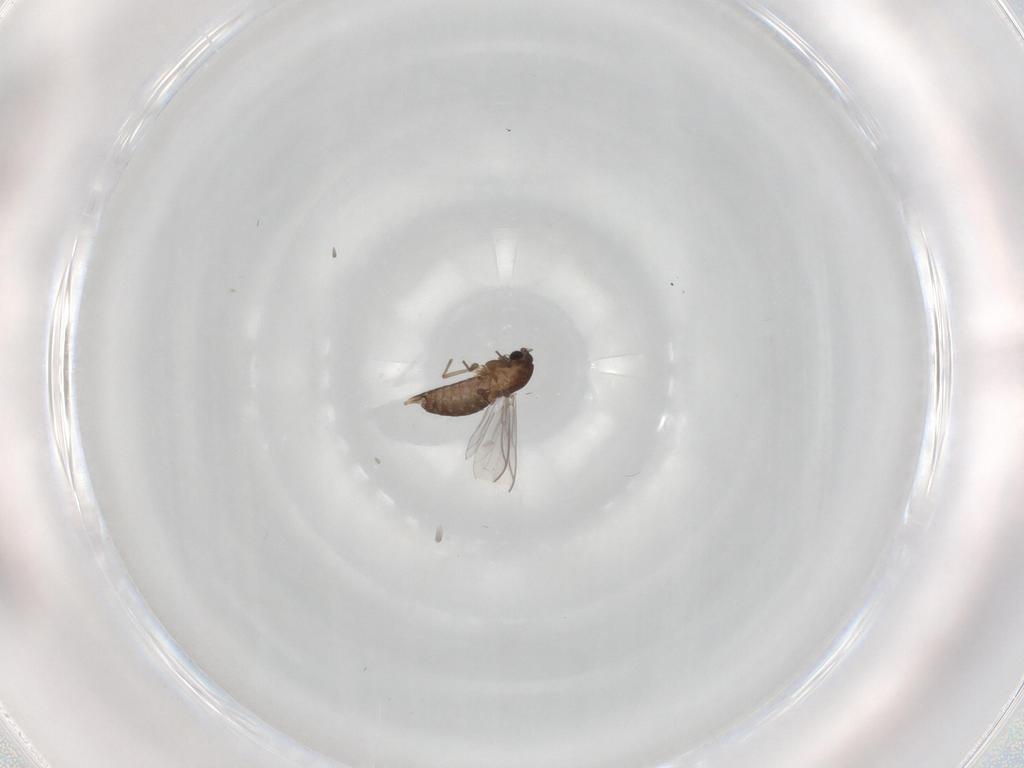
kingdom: Animalia
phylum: Arthropoda
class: Insecta
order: Diptera
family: Chironomidae
